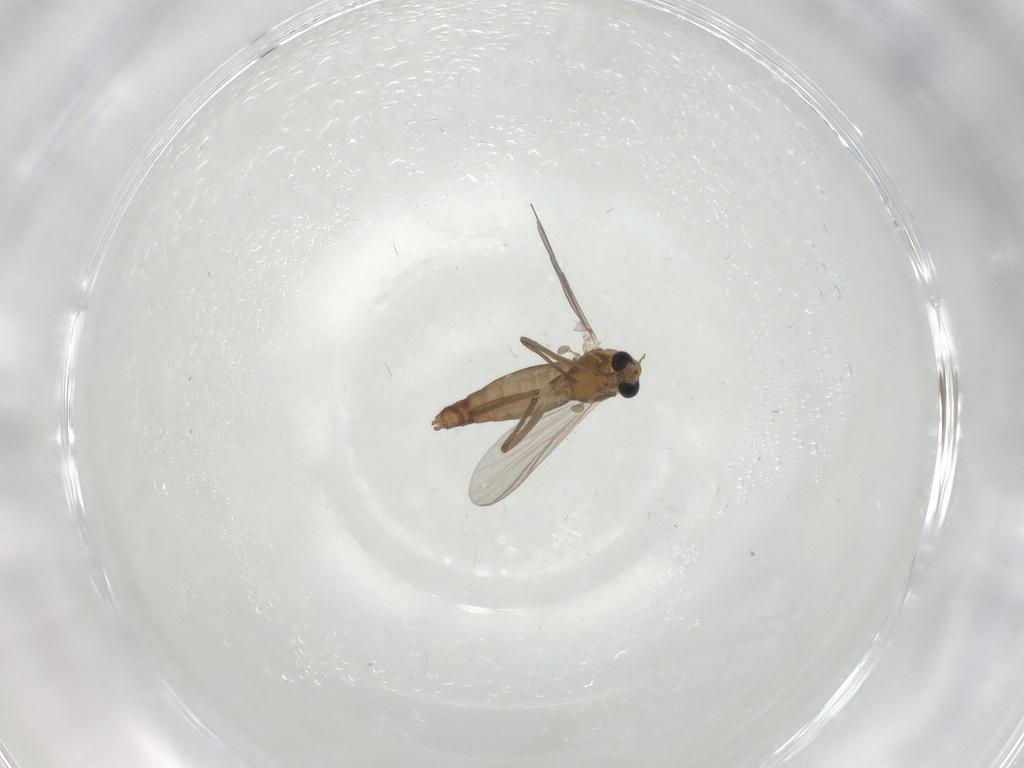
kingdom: Animalia
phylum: Arthropoda
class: Insecta
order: Diptera
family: Chironomidae
